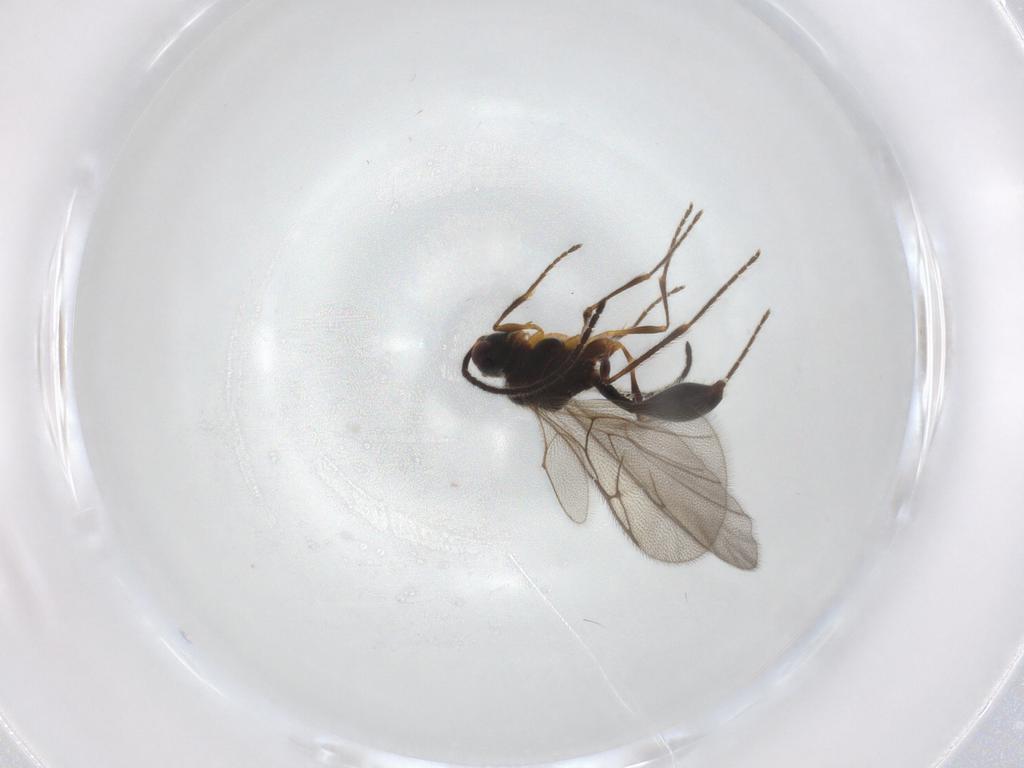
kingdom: Animalia
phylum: Arthropoda
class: Insecta
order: Hymenoptera
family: Diapriidae
